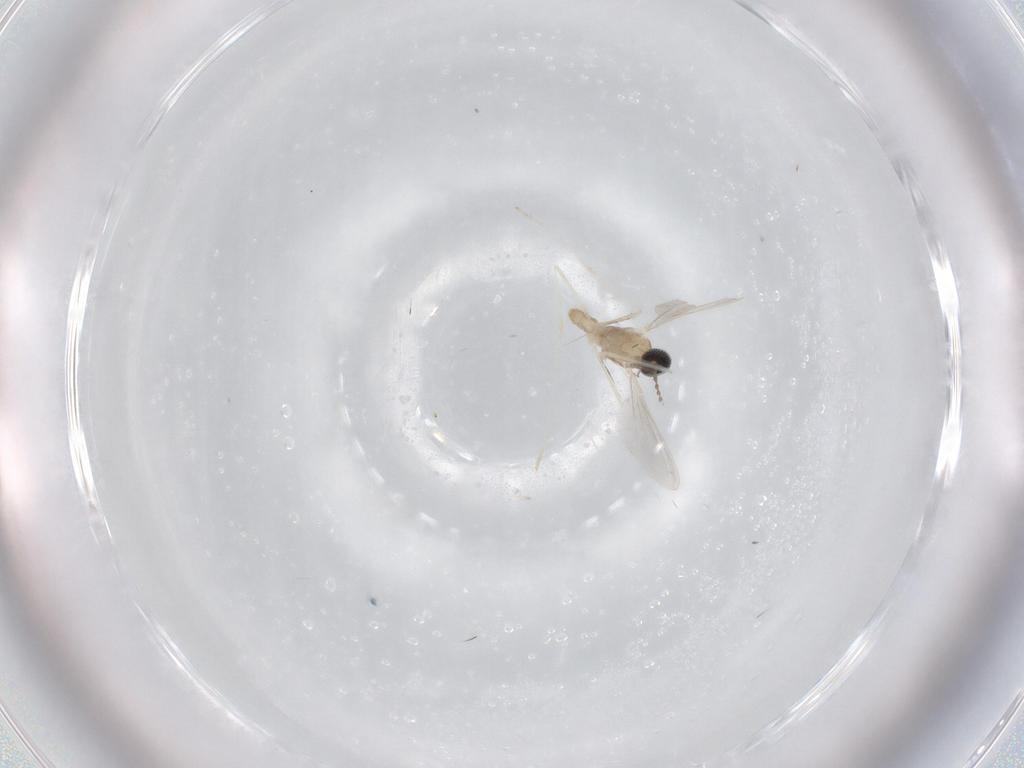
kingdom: Animalia
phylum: Arthropoda
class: Insecta
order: Diptera
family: Cecidomyiidae
